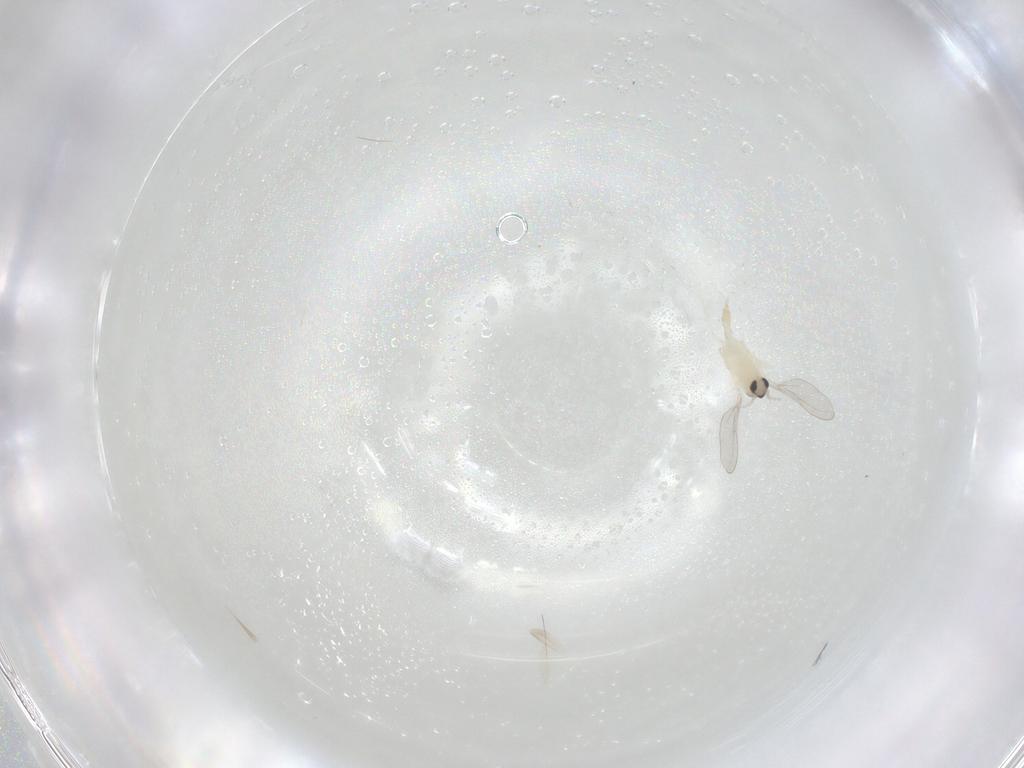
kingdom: Animalia
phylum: Arthropoda
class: Insecta
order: Diptera
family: Cecidomyiidae
